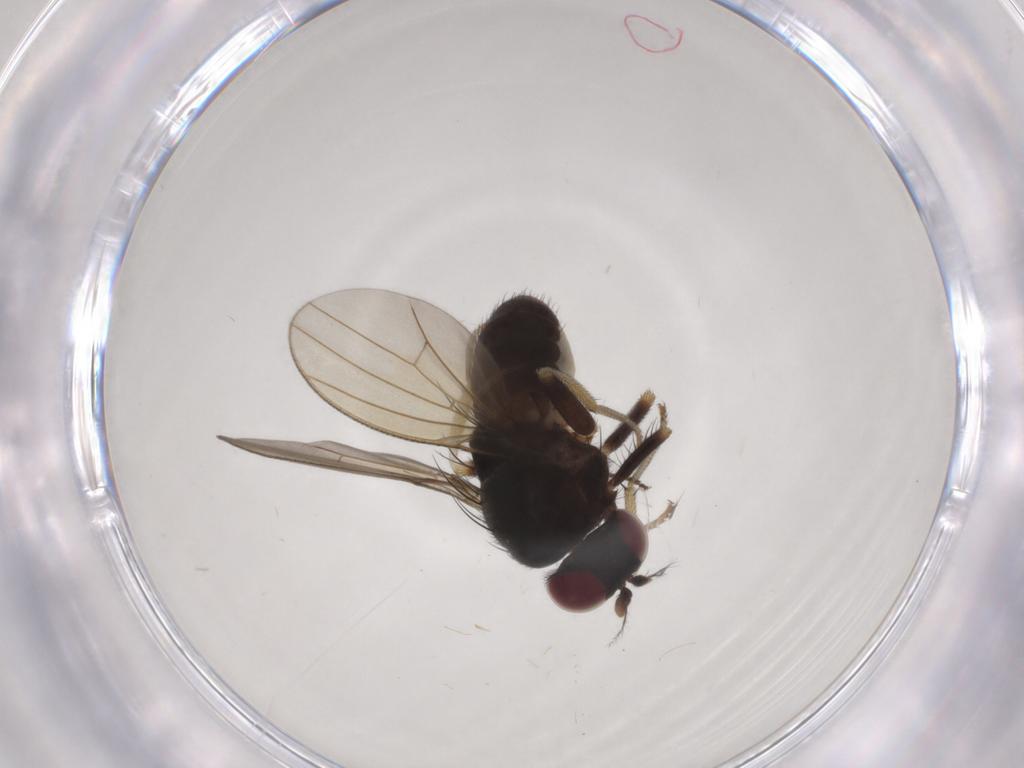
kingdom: Animalia
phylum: Arthropoda
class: Insecta
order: Diptera
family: Lauxaniidae
